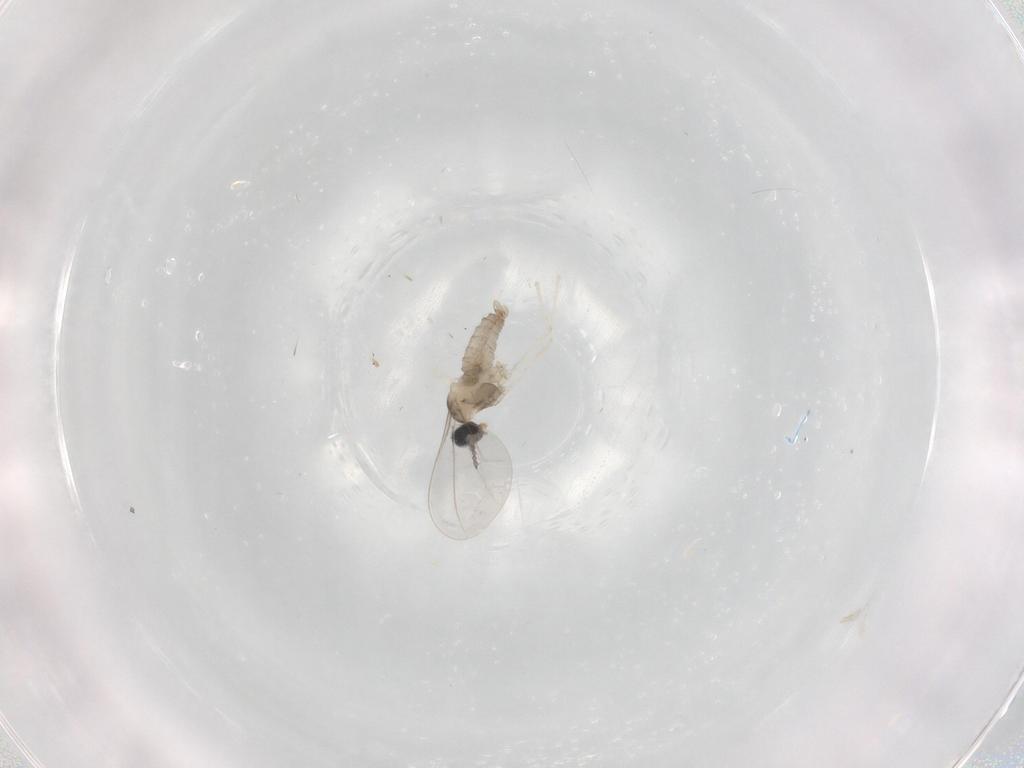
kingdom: Animalia
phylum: Arthropoda
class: Insecta
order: Diptera
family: Cecidomyiidae
